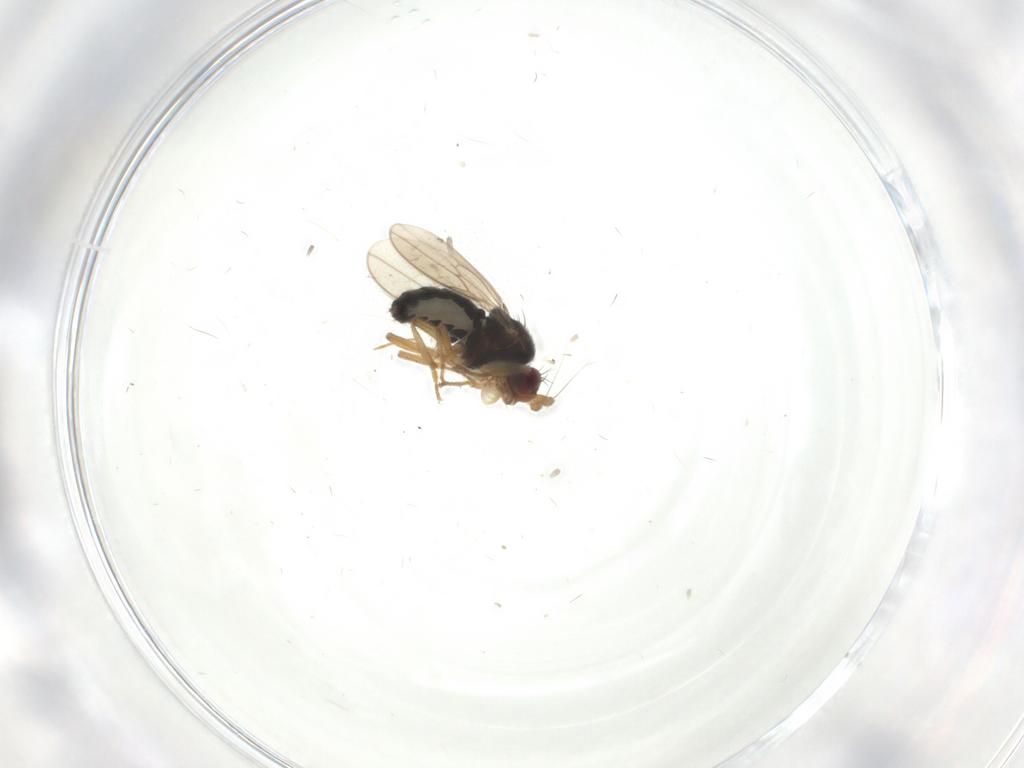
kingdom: Animalia
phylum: Arthropoda
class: Insecta
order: Diptera
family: Sphaeroceridae
